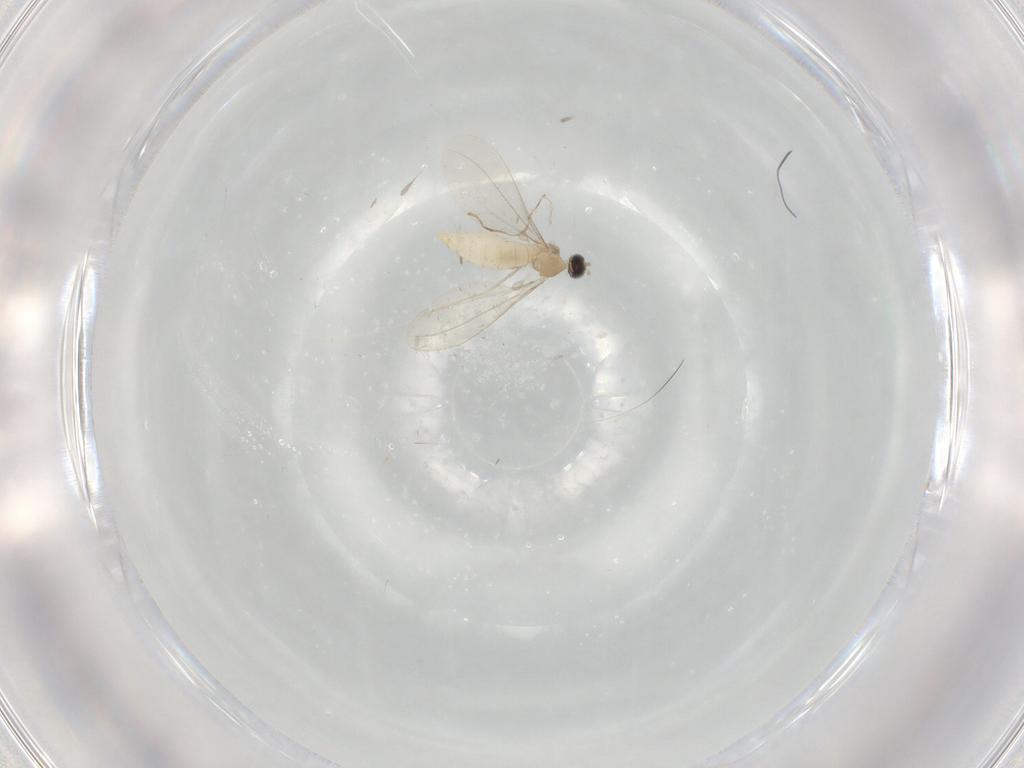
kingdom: Animalia
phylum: Arthropoda
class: Insecta
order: Diptera
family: Cecidomyiidae
